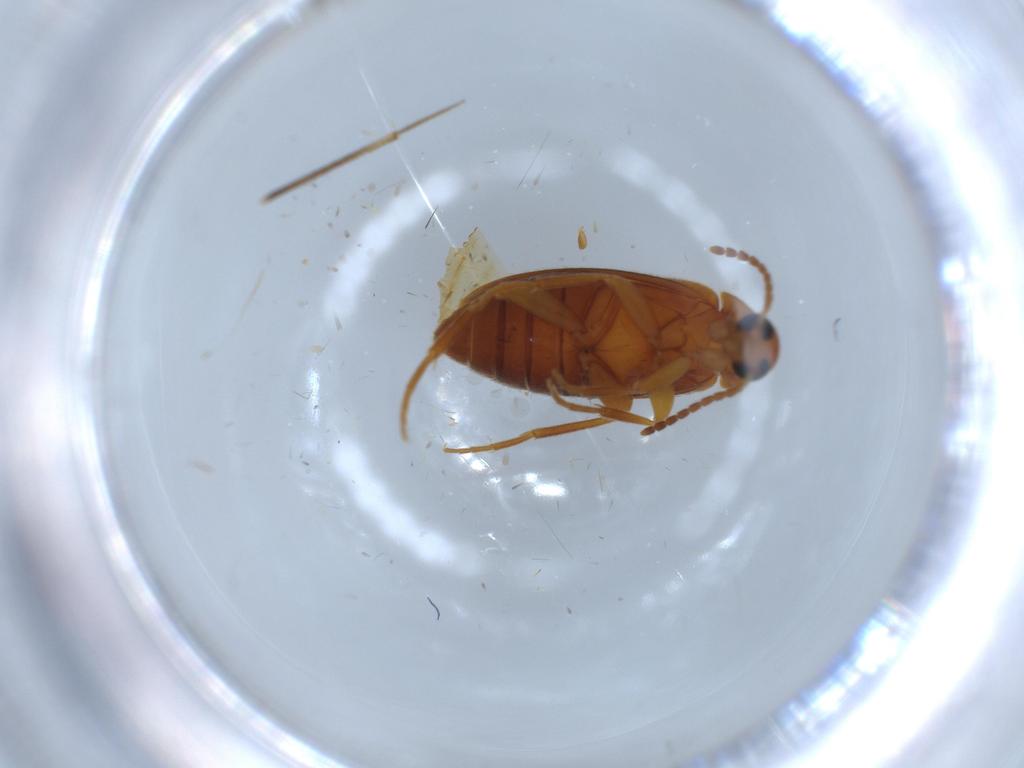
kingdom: Animalia
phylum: Arthropoda
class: Insecta
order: Coleoptera
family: Scraptiidae
